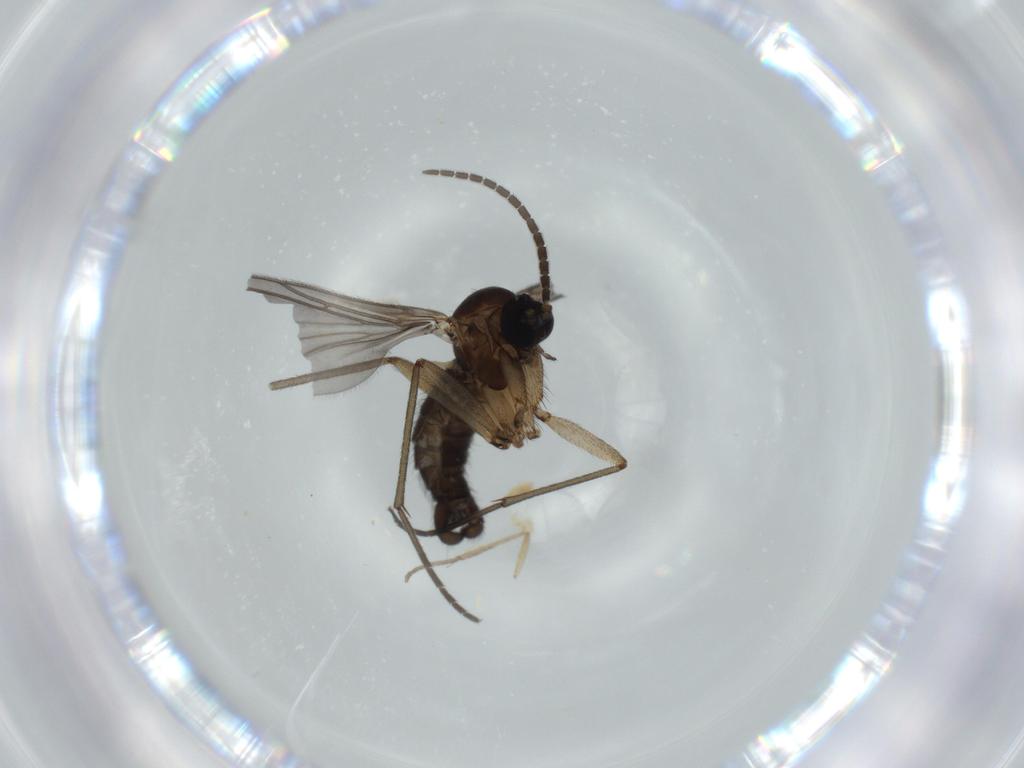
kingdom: Animalia
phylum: Arthropoda
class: Insecta
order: Diptera
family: Sciaridae
